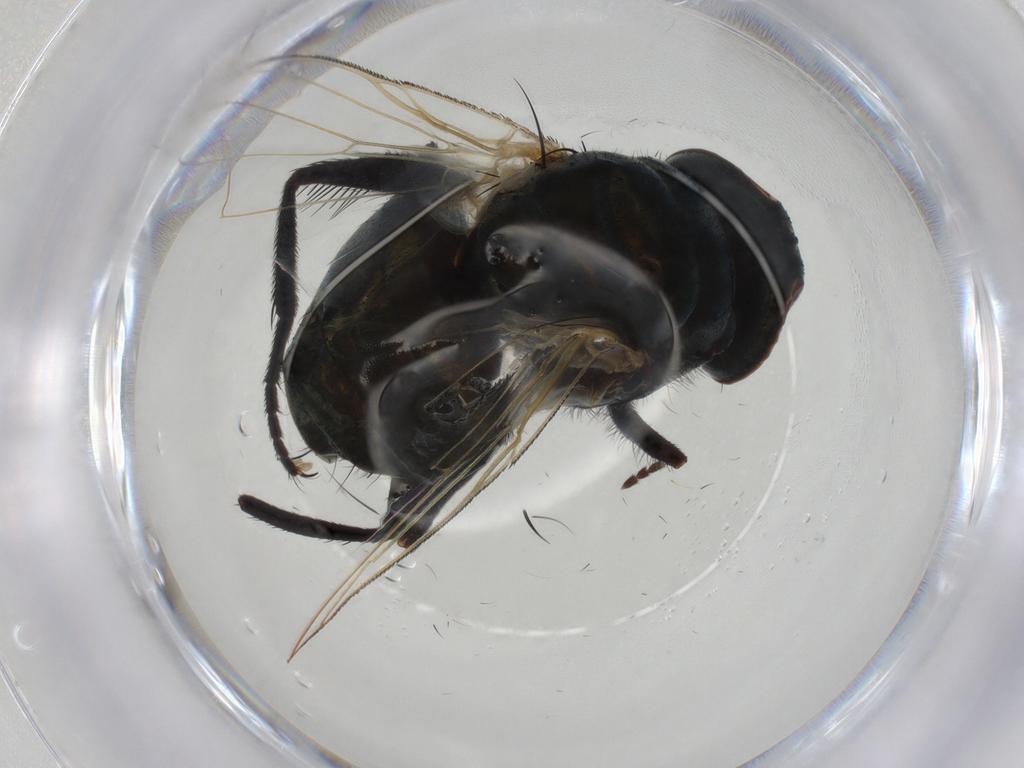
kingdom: Animalia
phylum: Arthropoda
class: Insecta
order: Diptera
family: Muscidae
